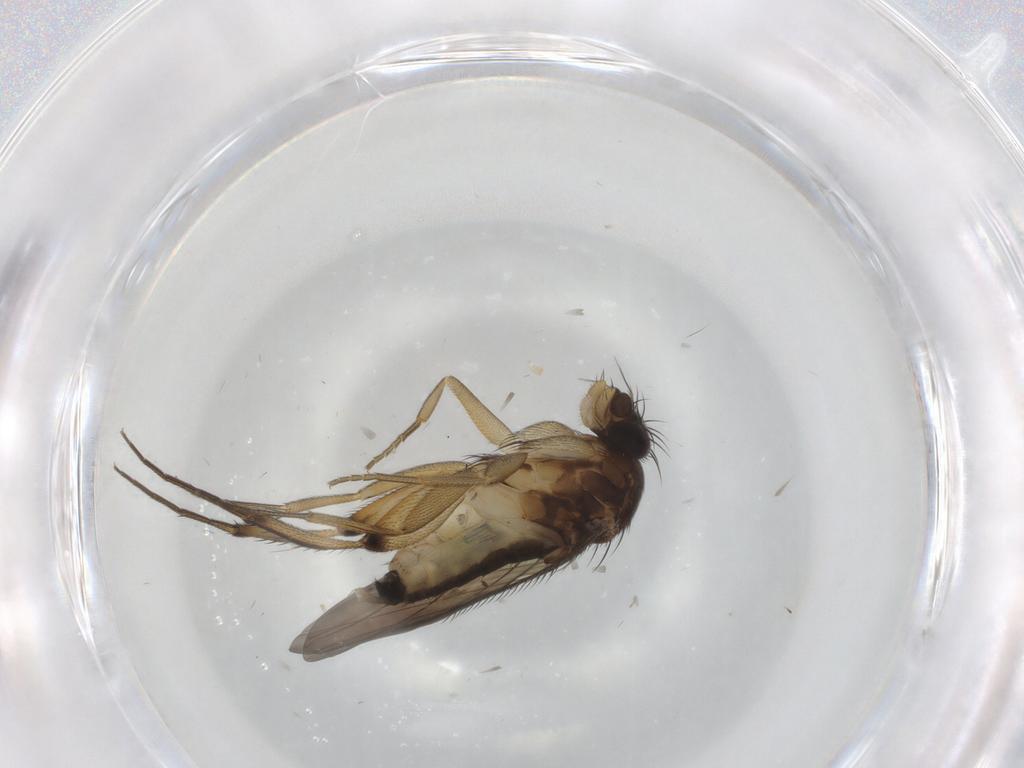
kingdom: Animalia
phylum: Arthropoda
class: Insecta
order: Diptera
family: Phoridae
